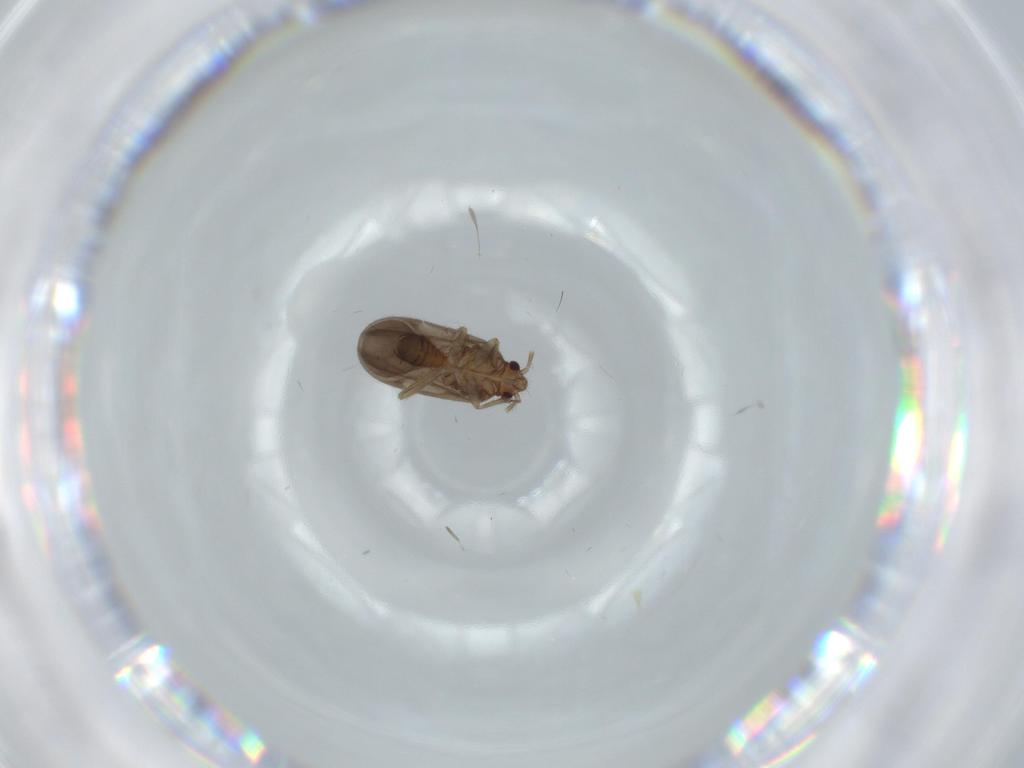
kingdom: Animalia
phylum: Arthropoda
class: Insecta
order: Hemiptera
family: Ceratocombidae
